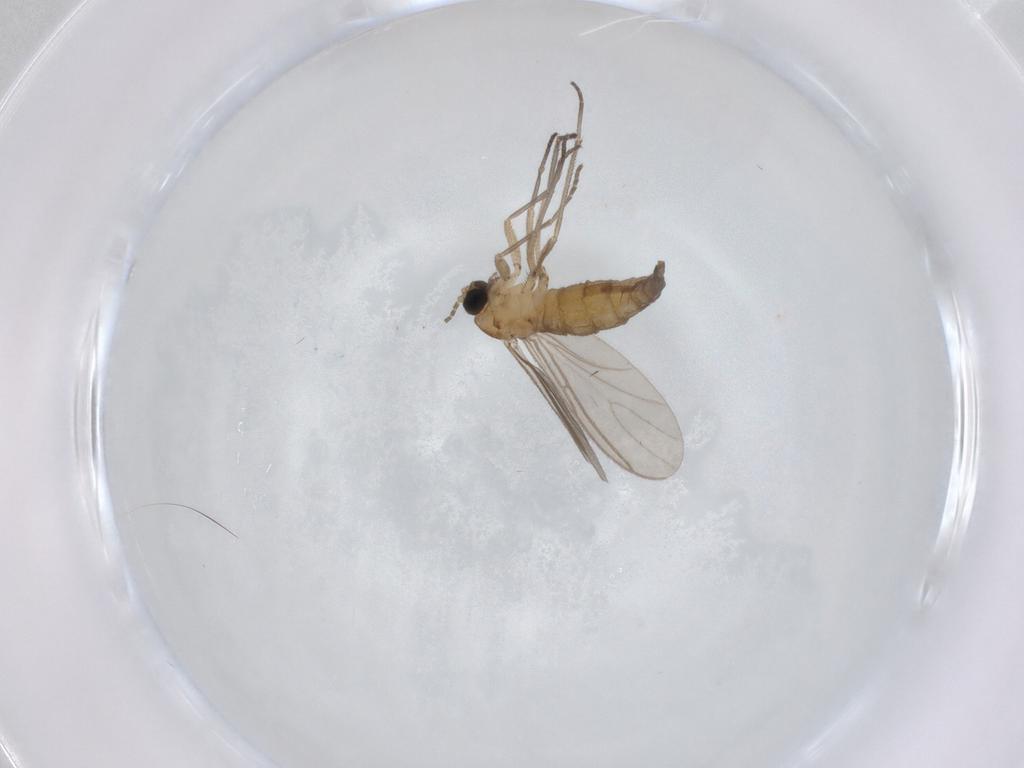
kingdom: Animalia
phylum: Arthropoda
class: Insecta
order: Diptera
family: Sciaridae
